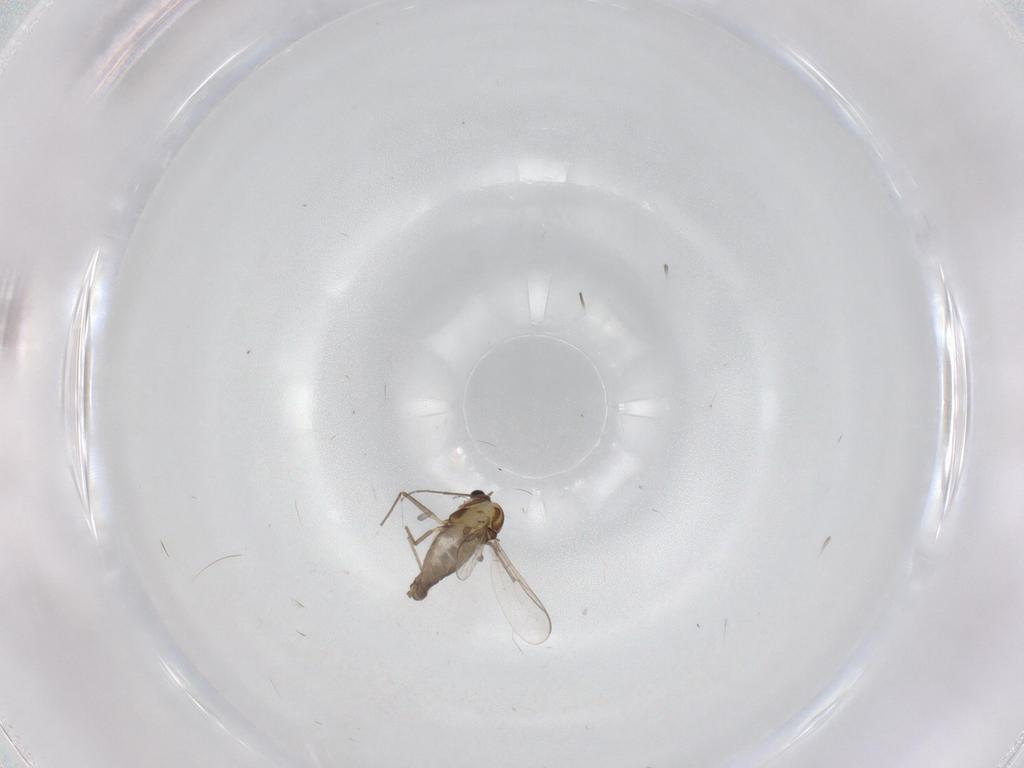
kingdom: Animalia
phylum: Arthropoda
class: Insecta
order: Diptera
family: Chironomidae
